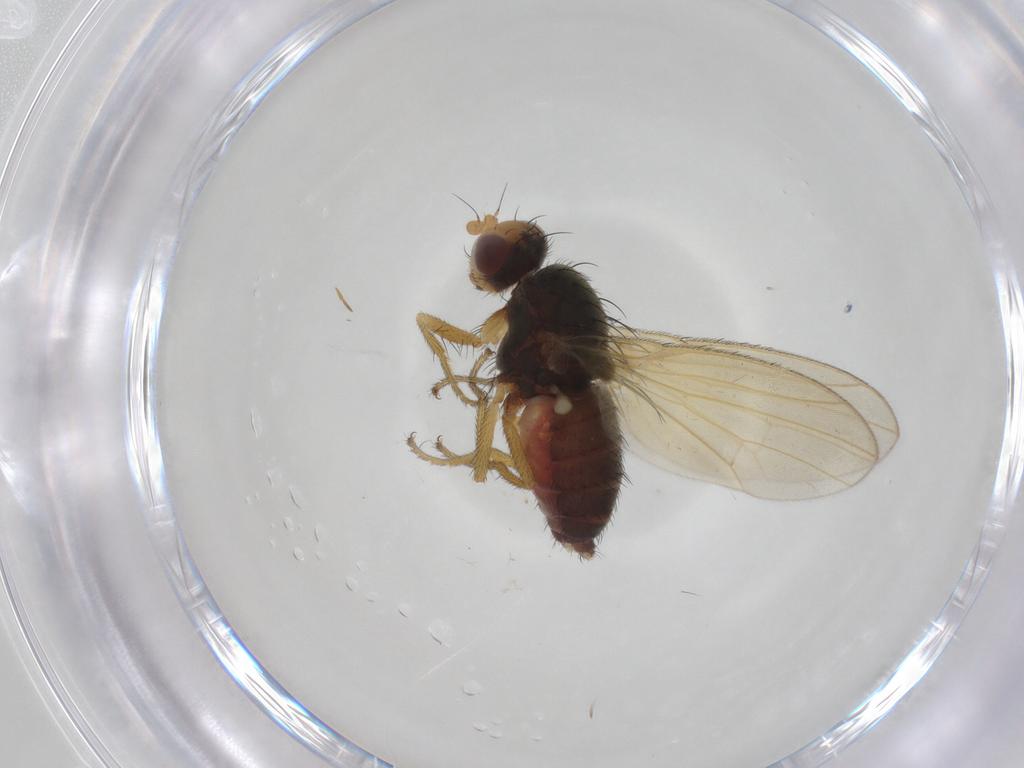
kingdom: Animalia
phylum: Arthropoda
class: Insecta
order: Diptera
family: Heleomyzidae
